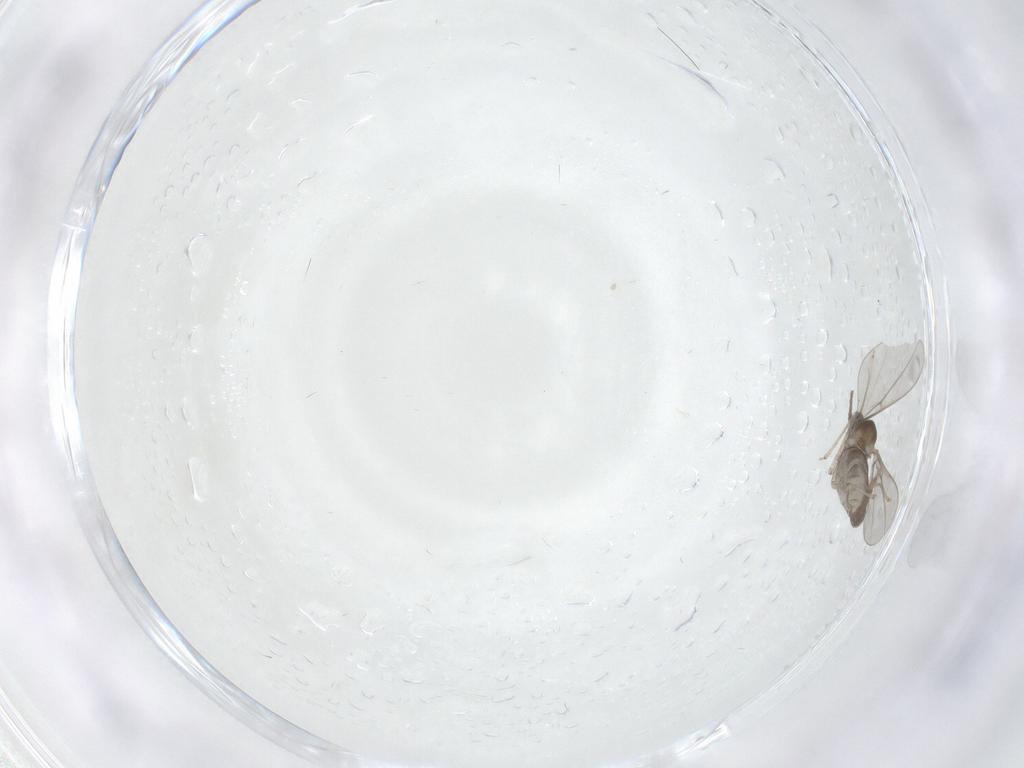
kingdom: Animalia
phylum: Arthropoda
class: Insecta
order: Diptera
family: Cecidomyiidae
